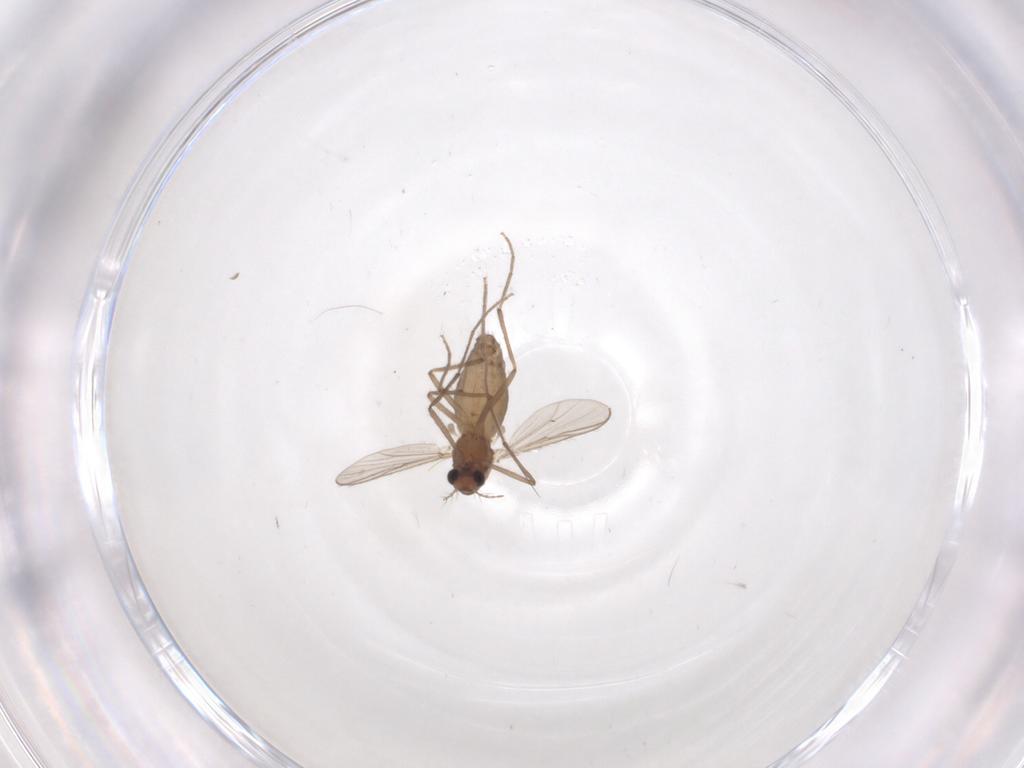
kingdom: Animalia
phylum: Arthropoda
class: Insecta
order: Diptera
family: Chironomidae
